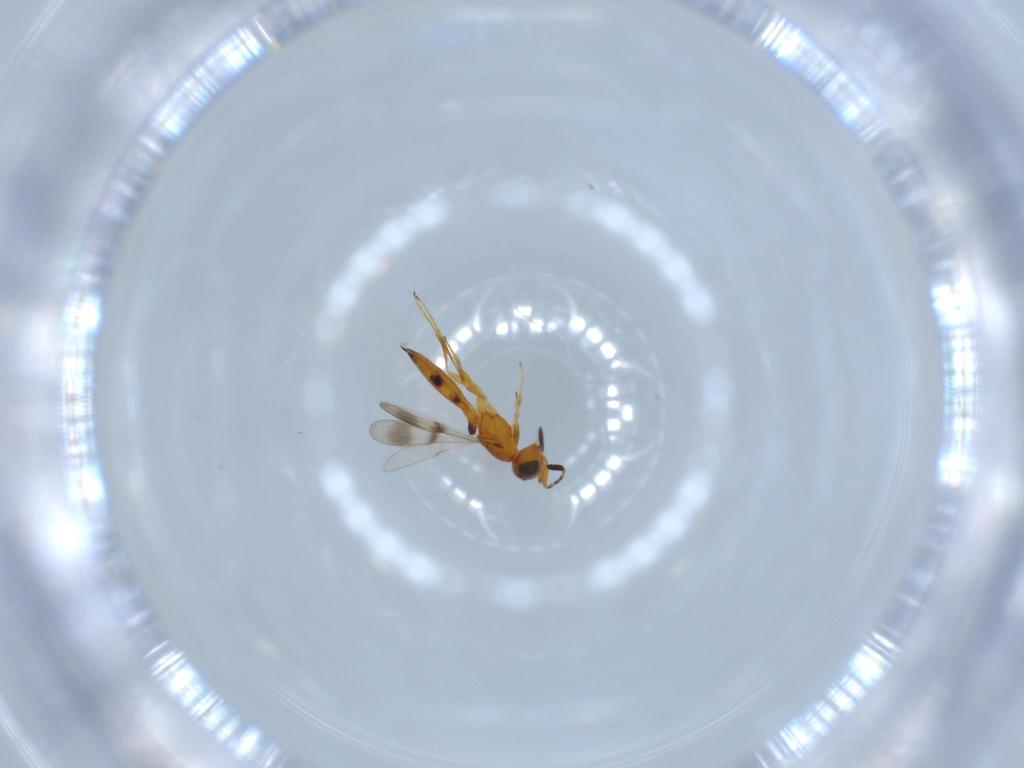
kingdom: Animalia
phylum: Arthropoda
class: Insecta
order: Hymenoptera
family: Scelionidae
